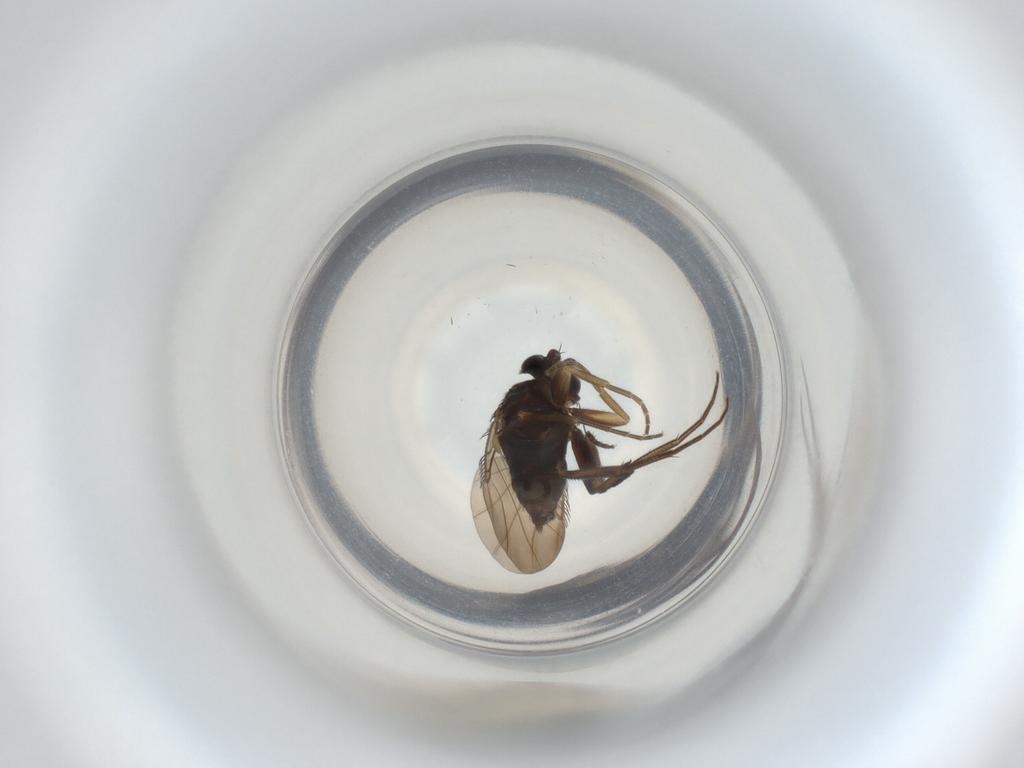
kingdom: Animalia
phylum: Arthropoda
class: Insecta
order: Diptera
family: Phoridae
